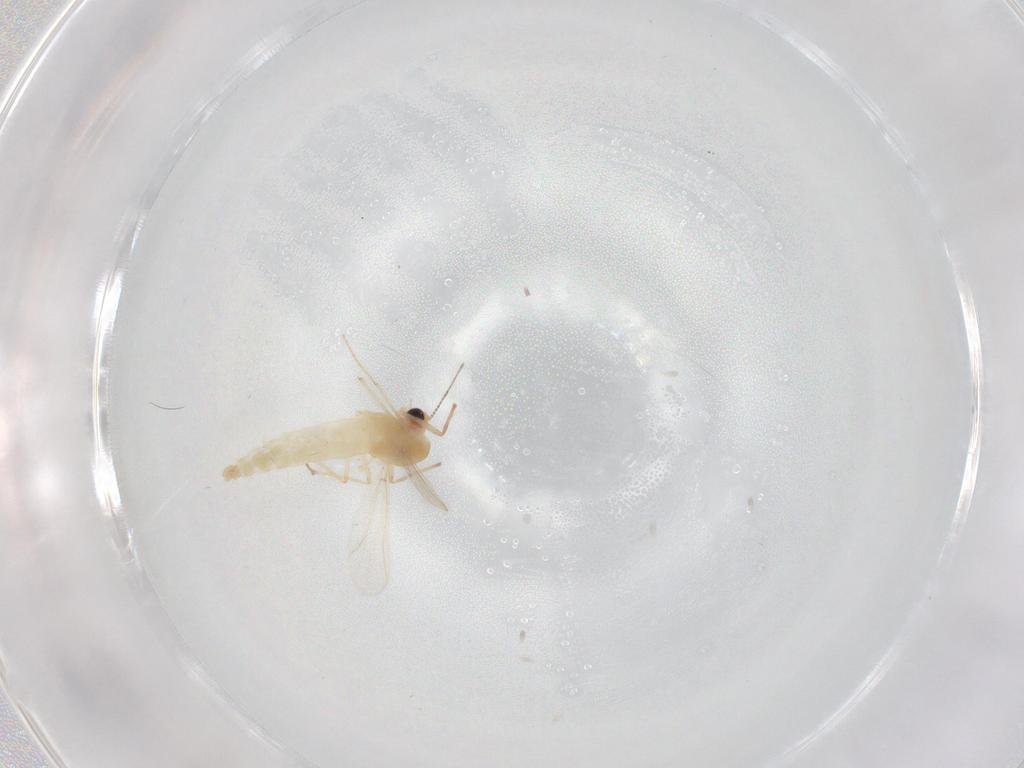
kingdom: Animalia
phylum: Arthropoda
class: Insecta
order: Diptera
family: Chironomidae
